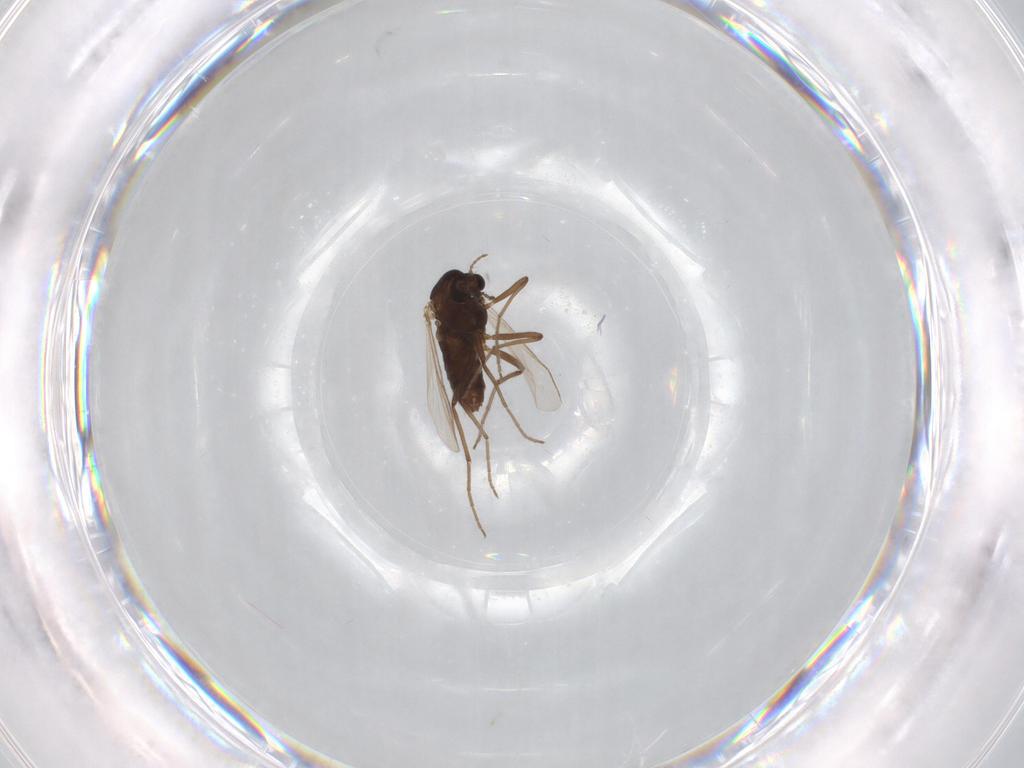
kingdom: Animalia
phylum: Arthropoda
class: Insecta
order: Diptera
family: Chironomidae
